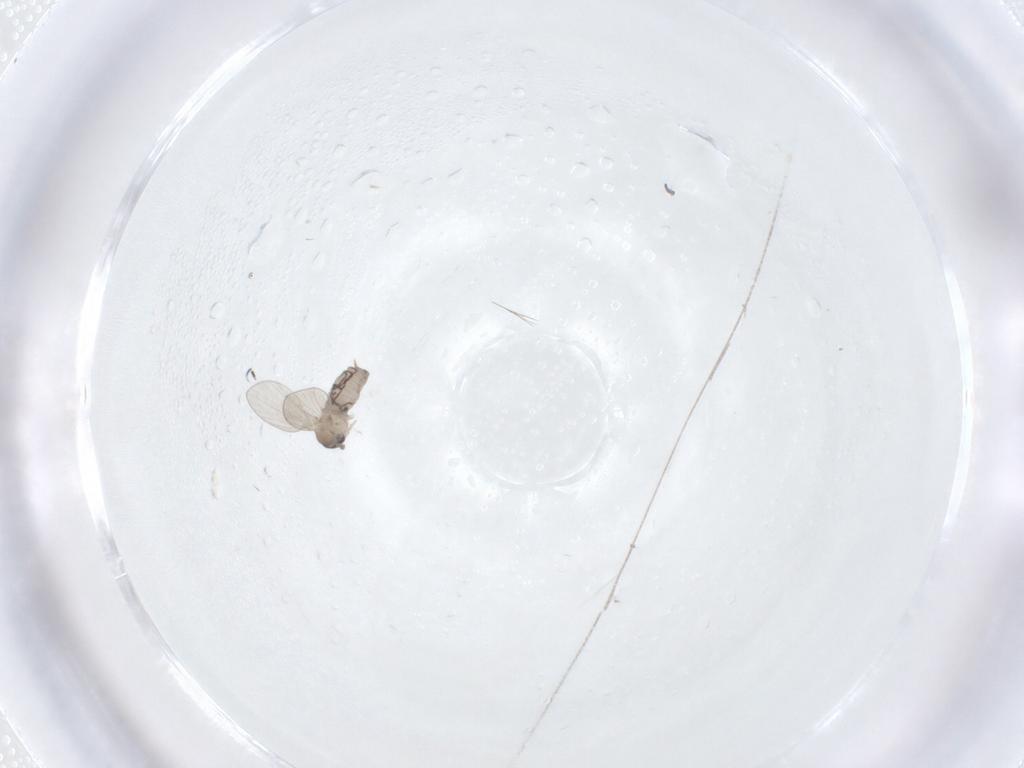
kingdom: Animalia
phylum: Arthropoda
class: Insecta
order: Diptera
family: Psychodidae
